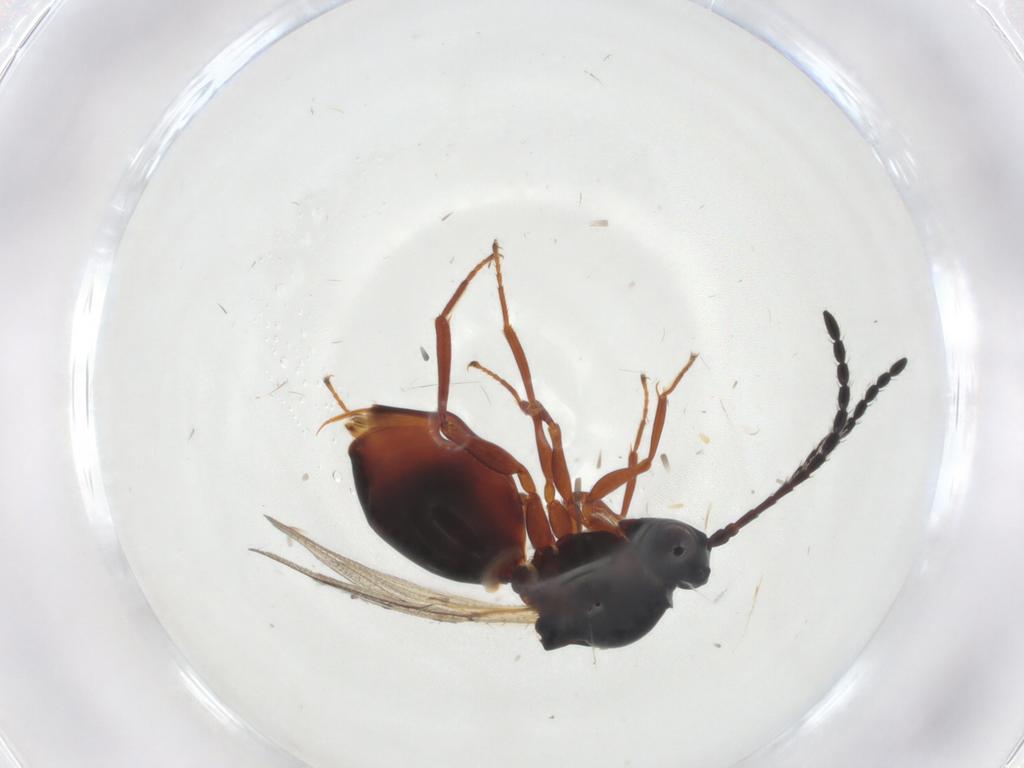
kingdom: Animalia
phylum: Arthropoda
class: Insecta
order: Hymenoptera
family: Figitidae
